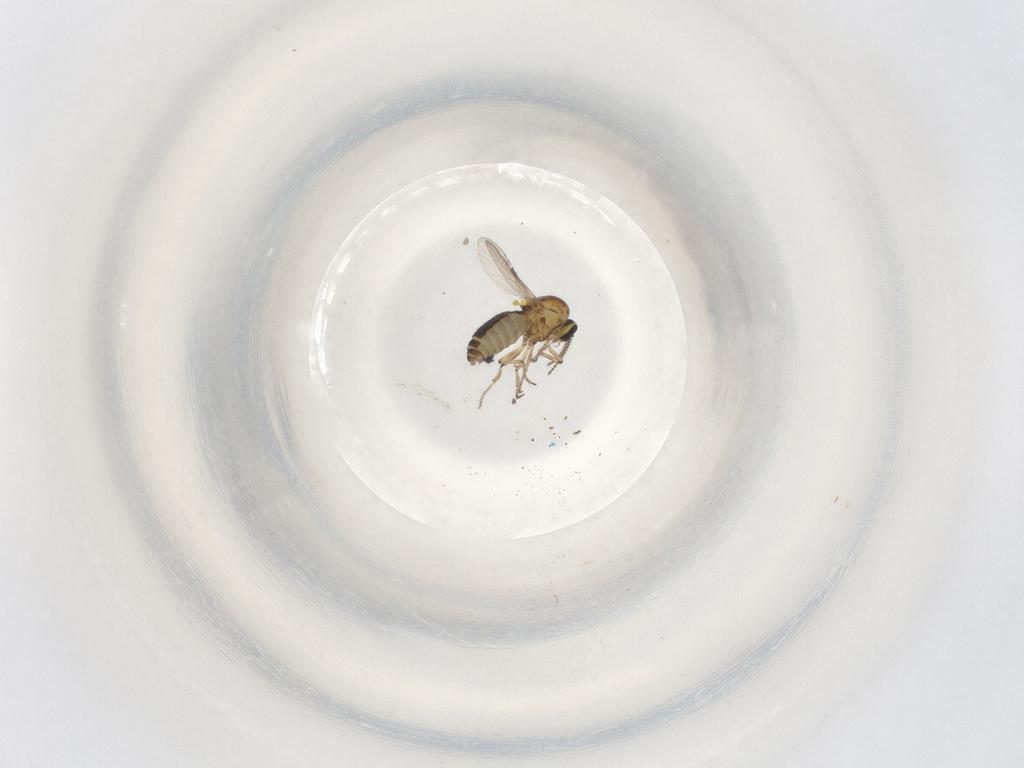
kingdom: Animalia
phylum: Arthropoda
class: Insecta
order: Diptera
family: Ceratopogonidae
